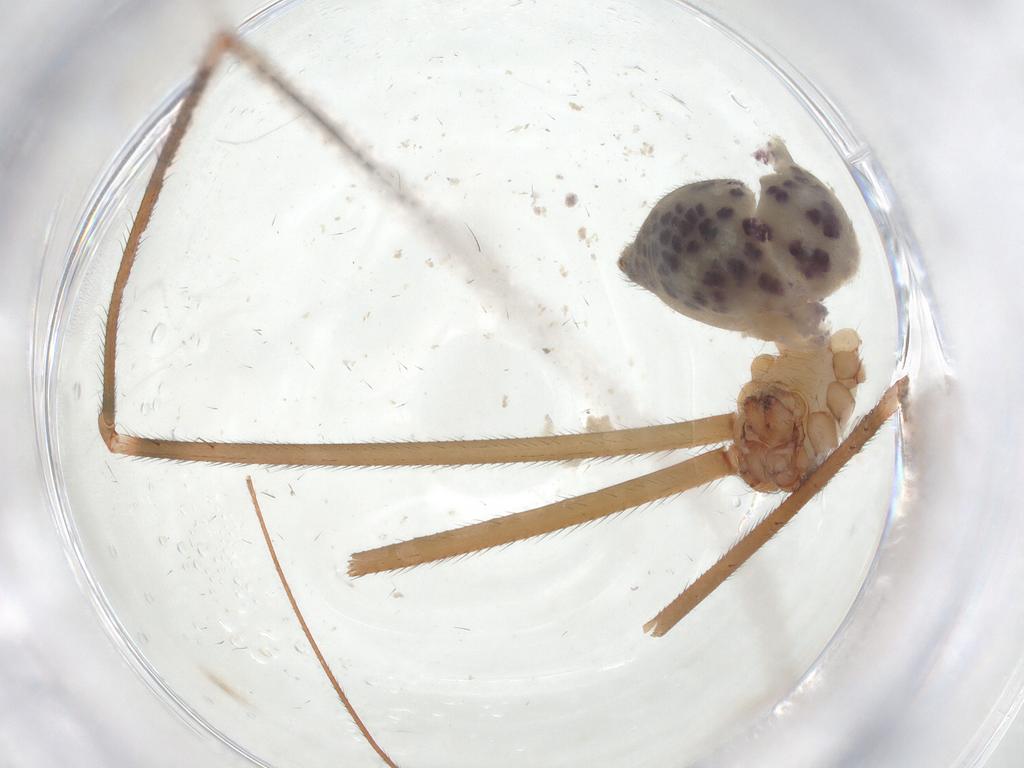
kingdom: Animalia
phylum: Arthropoda
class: Arachnida
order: Araneae
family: Pholcidae
